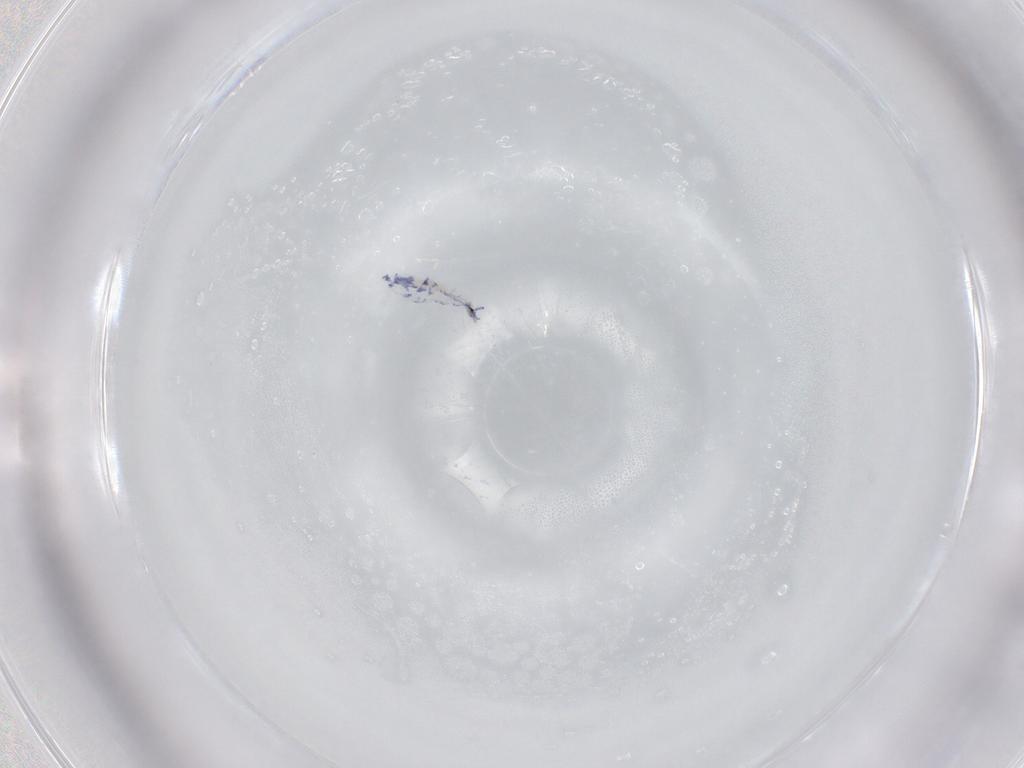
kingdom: Animalia
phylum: Arthropoda
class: Collembola
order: Entomobryomorpha
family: Entomobryidae
